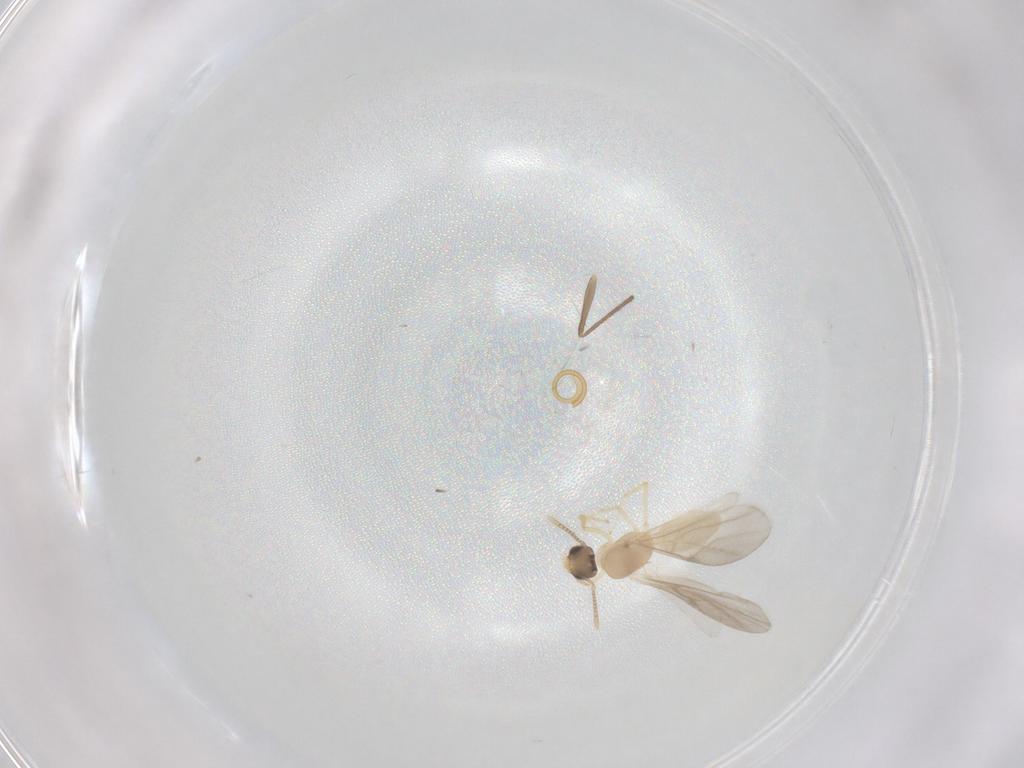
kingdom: Animalia
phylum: Arthropoda
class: Insecta
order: Hymenoptera
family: Formicidae
